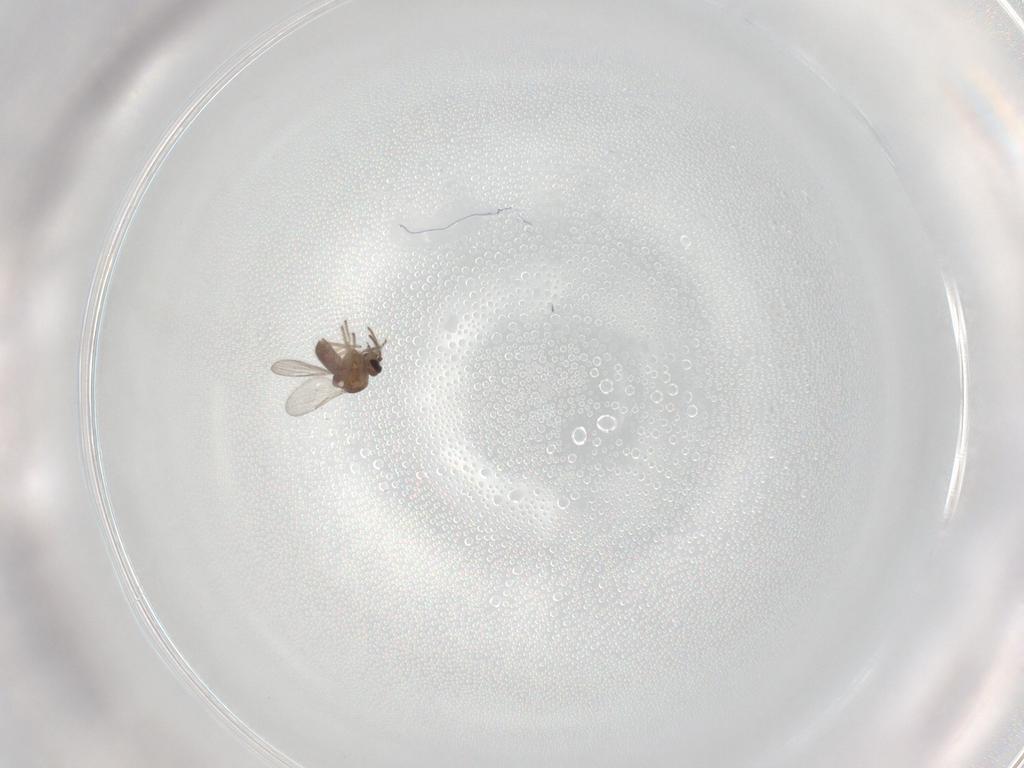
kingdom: Animalia
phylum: Arthropoda
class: Insecta
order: Diptera
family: Ceratopogonidae
